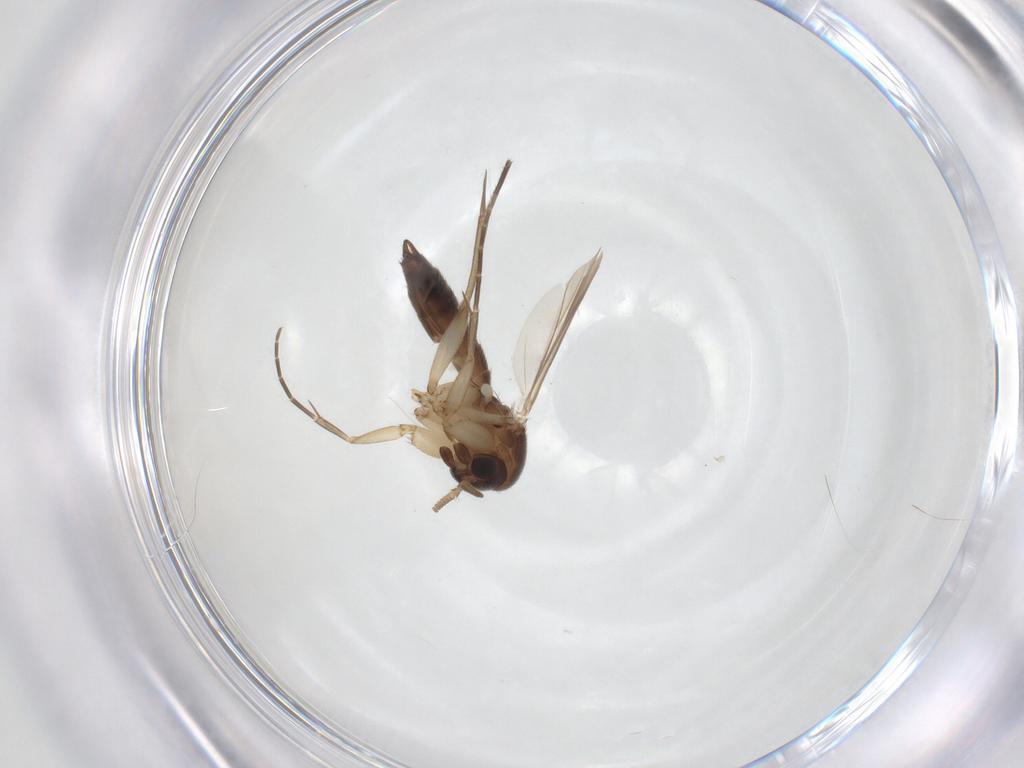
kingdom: Animalia
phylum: Arthropoda
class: Insecta
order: Diptera
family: Mycetophilidae
